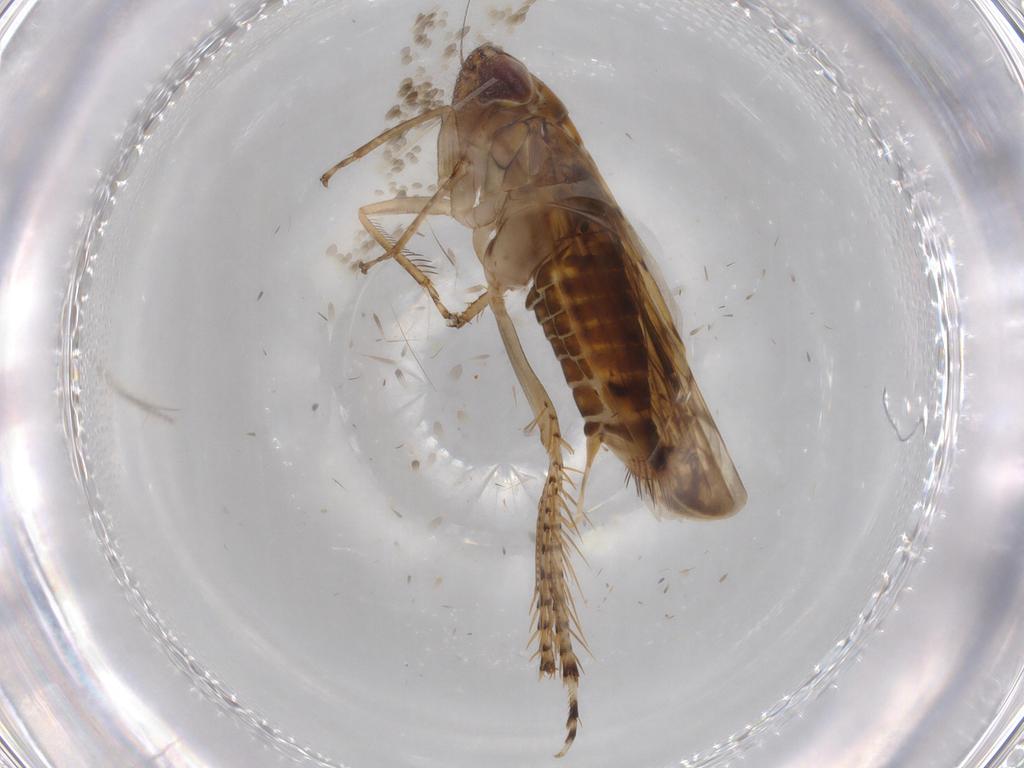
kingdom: Animalia
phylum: Arthropoda
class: Insecta
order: Hemiptera
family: Cicadellidae
